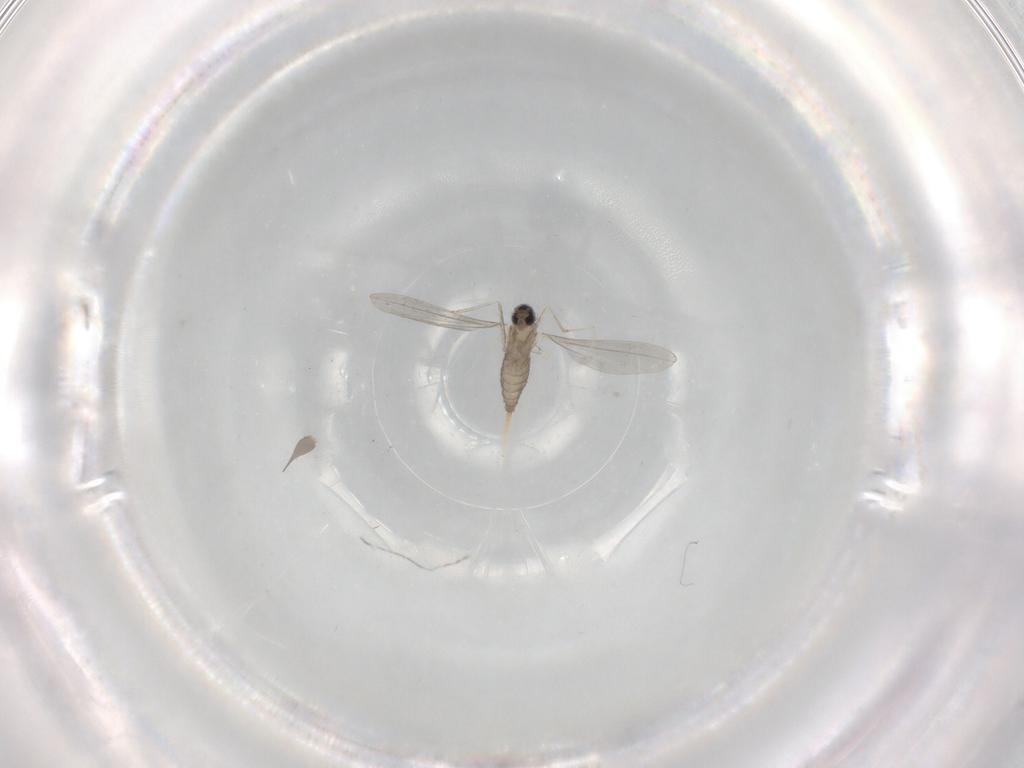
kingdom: Animalia
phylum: Arthropoda
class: Insecta
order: Diptera
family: Cecidomyiidae
